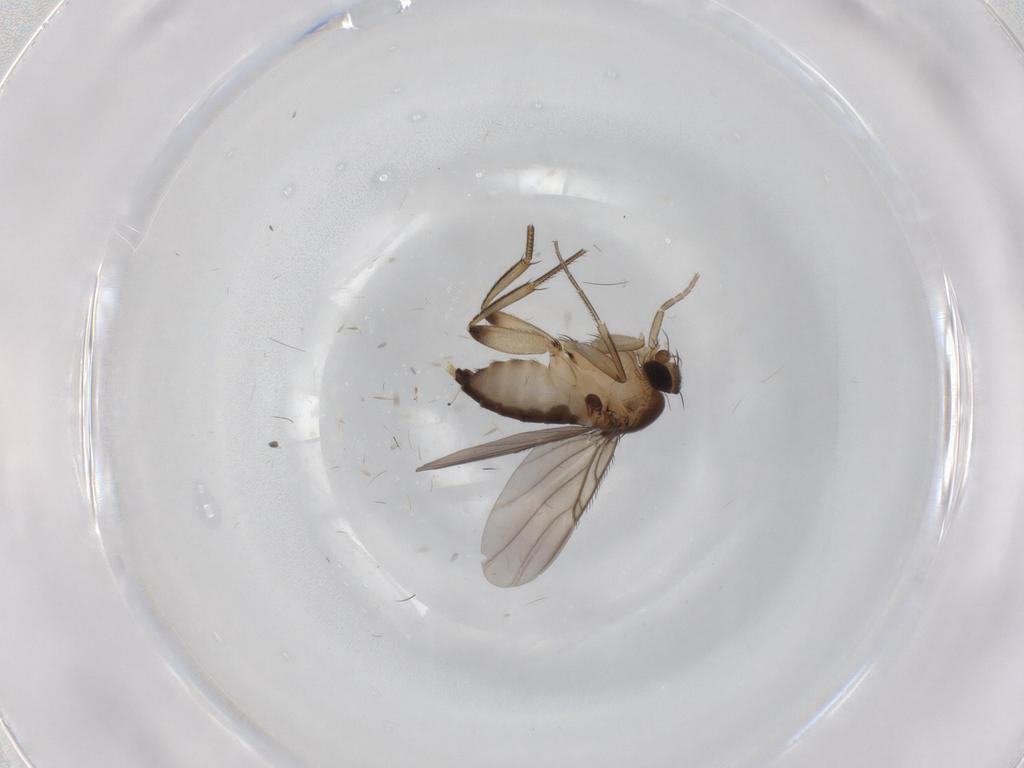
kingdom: Animalia
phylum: Arthropoda
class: Insecta
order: Diptera
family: Phoridae
